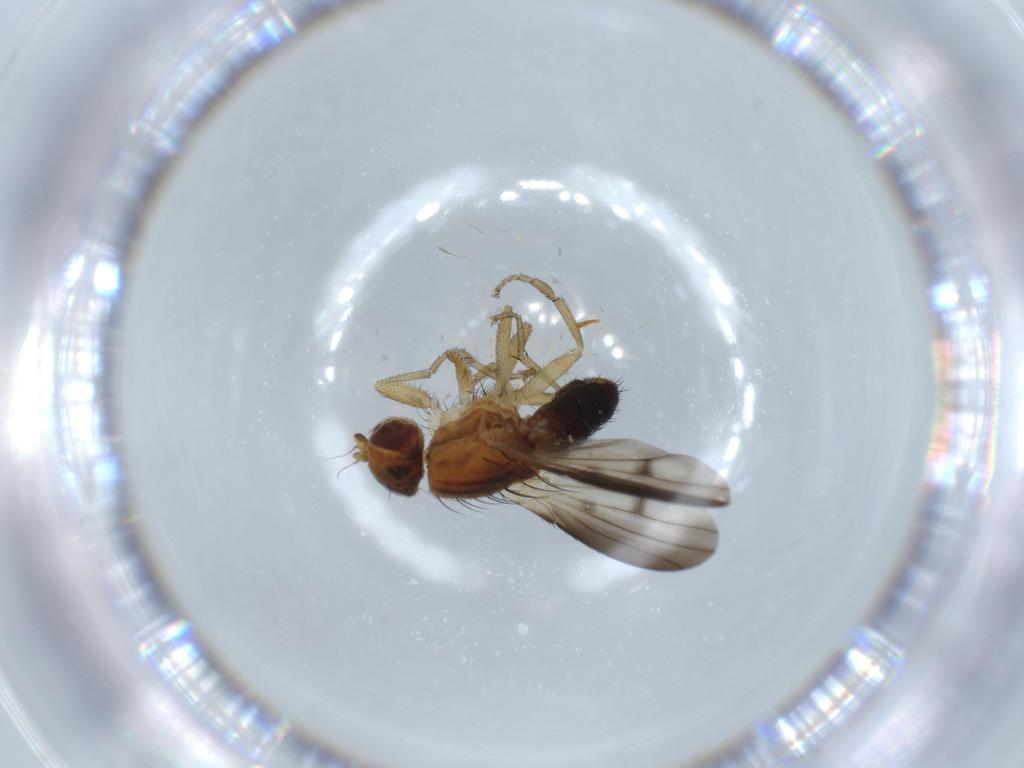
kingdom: Animalia
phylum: Arthropoda
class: Insecta
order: Diptera
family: Heleomyzidae
